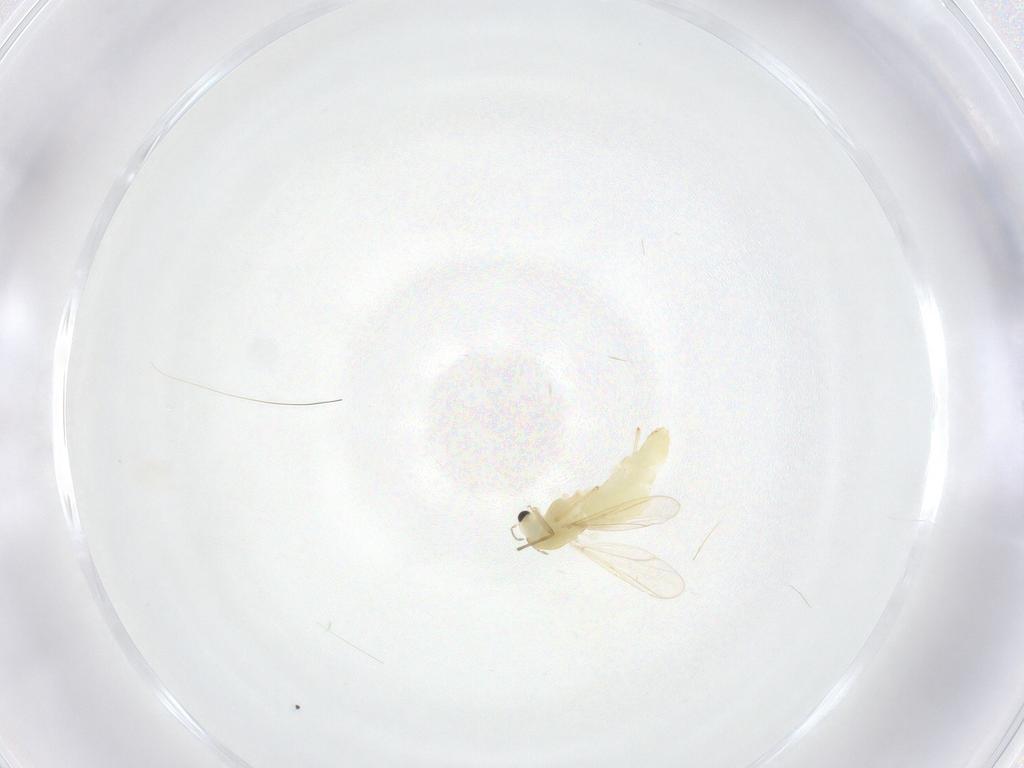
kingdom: Animalia
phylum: Arthropoda
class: Insecta
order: Diptera
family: Chironomidae
